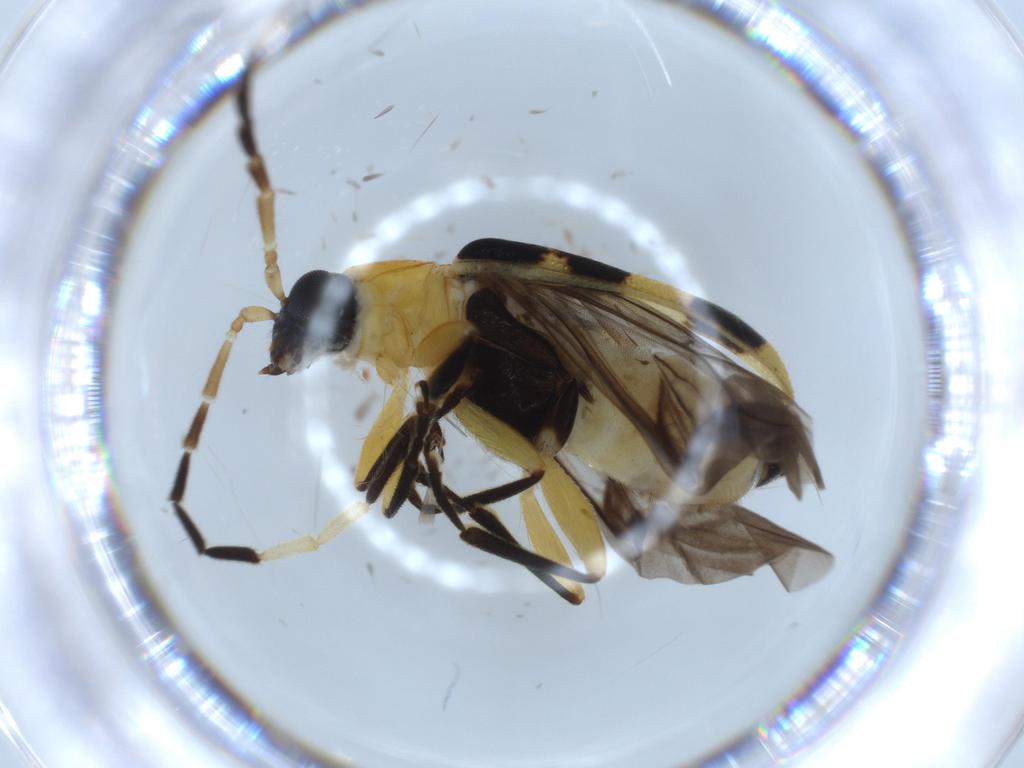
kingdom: Animalia
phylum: Arthropoda
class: Insecta
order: Coleoptera
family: Chrysomelidae
